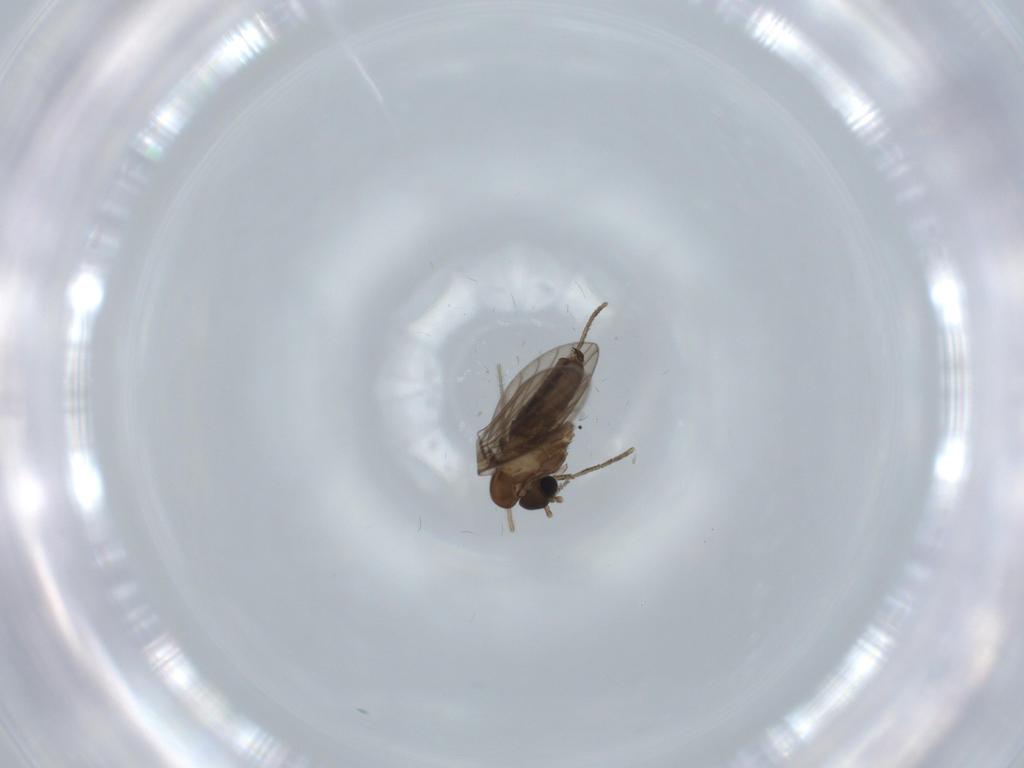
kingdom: Animalia
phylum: Arthropoda
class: Insecta
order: Diptera
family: Psychodidae
